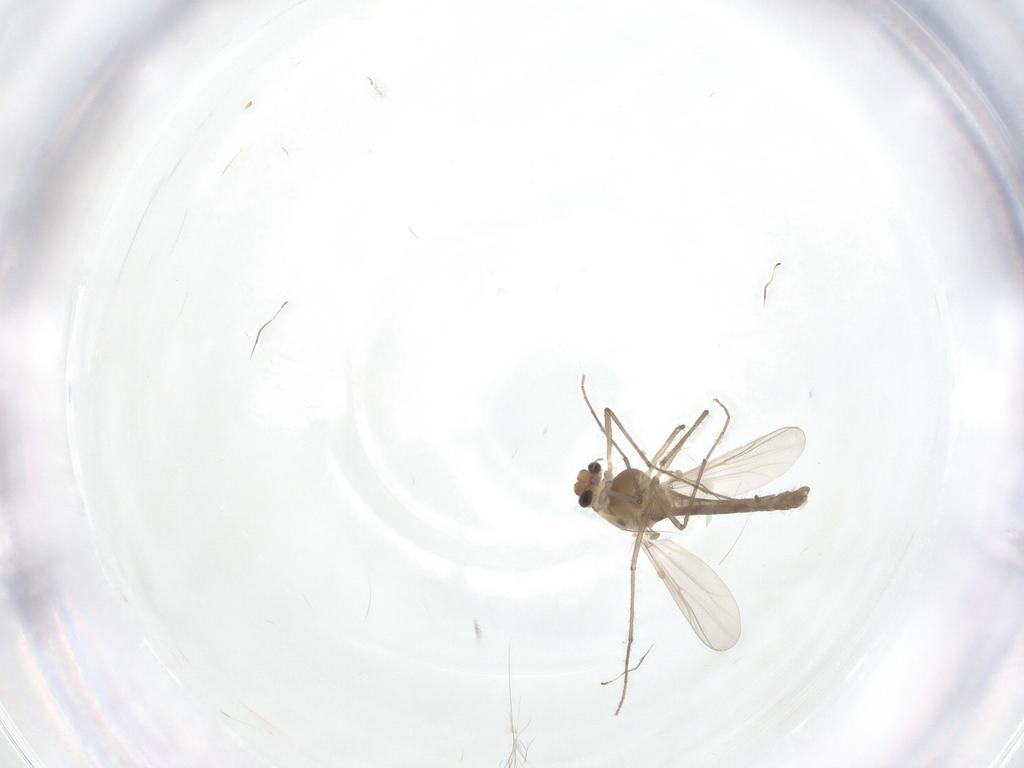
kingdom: Animalia
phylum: Arthropoda
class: Insecta
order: Diptera
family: Chironomidae
